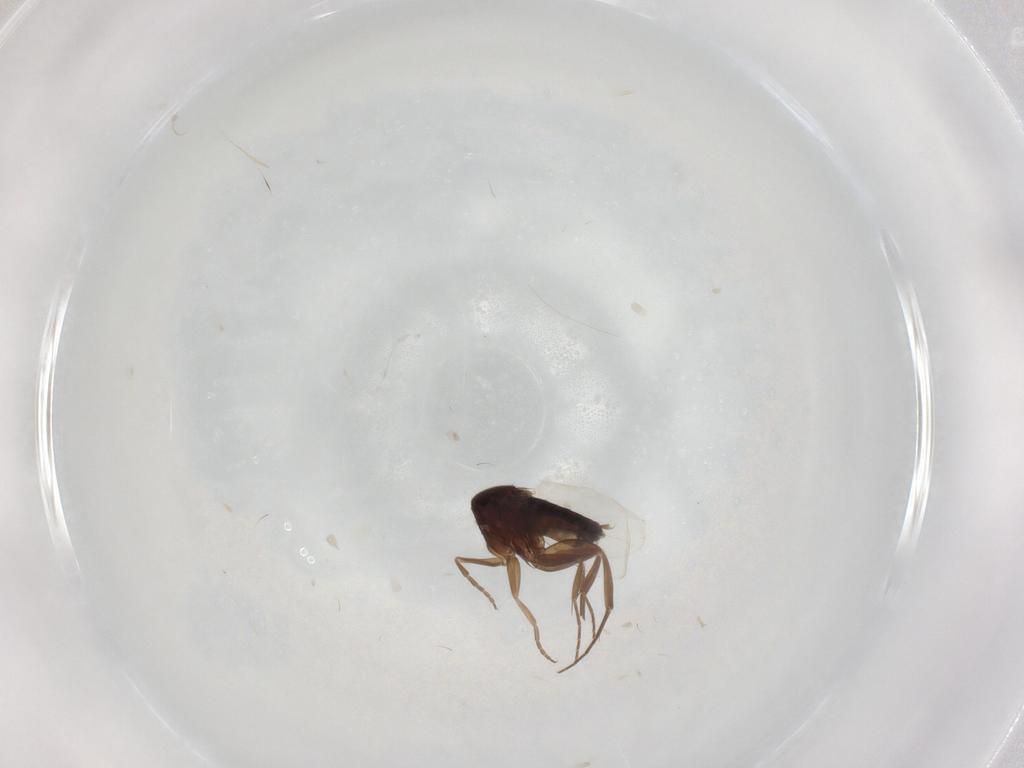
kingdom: Animalia
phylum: Arthropoda
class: Insecta
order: Diptera
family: Phoridae
